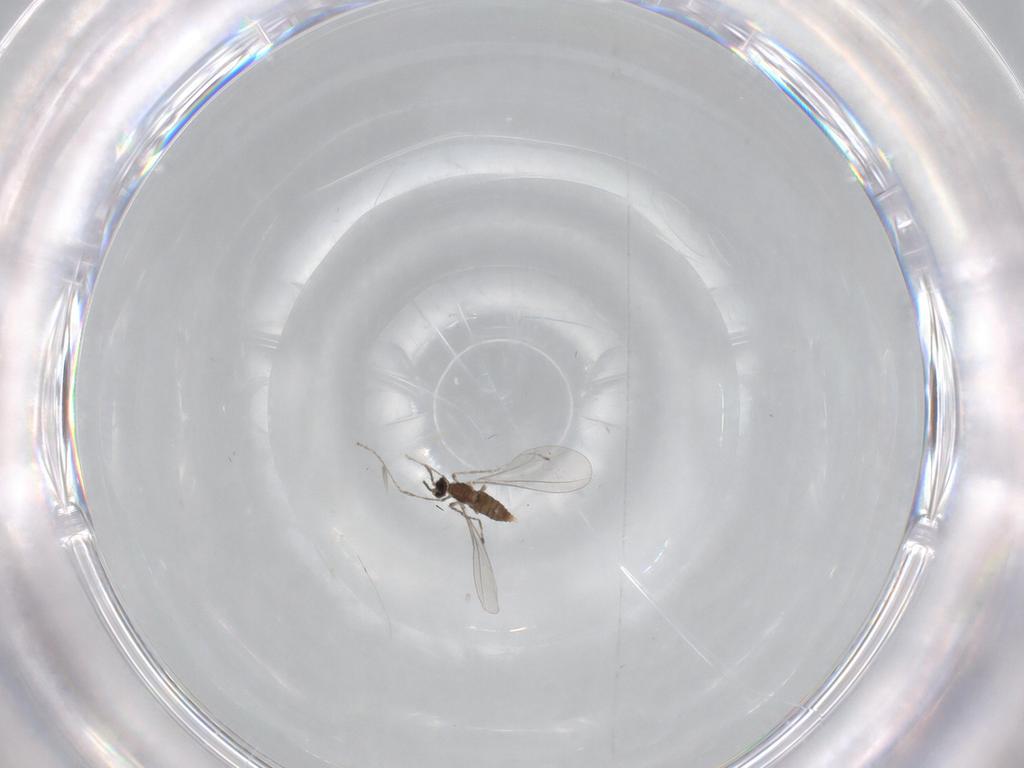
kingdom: Animalia
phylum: Arthropoda
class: Insecta
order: Diptera
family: Cecidomyiidae
